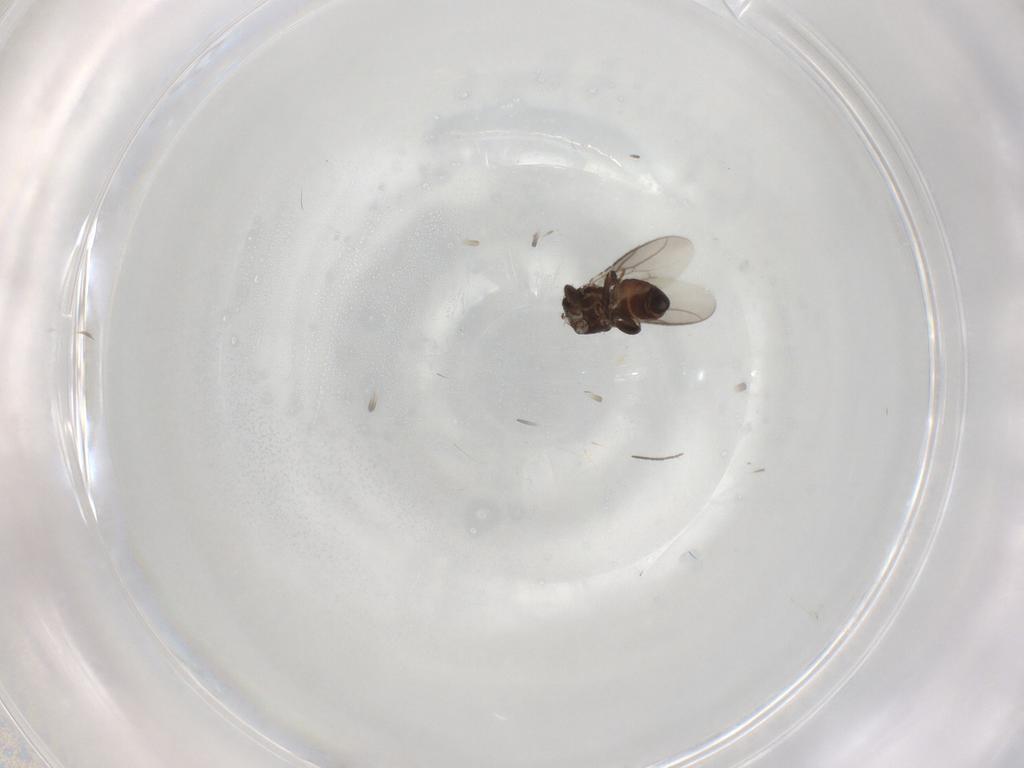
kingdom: Animalia
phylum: Arthropoda
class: Insecta
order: Diptera
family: Sphaeroceridae
